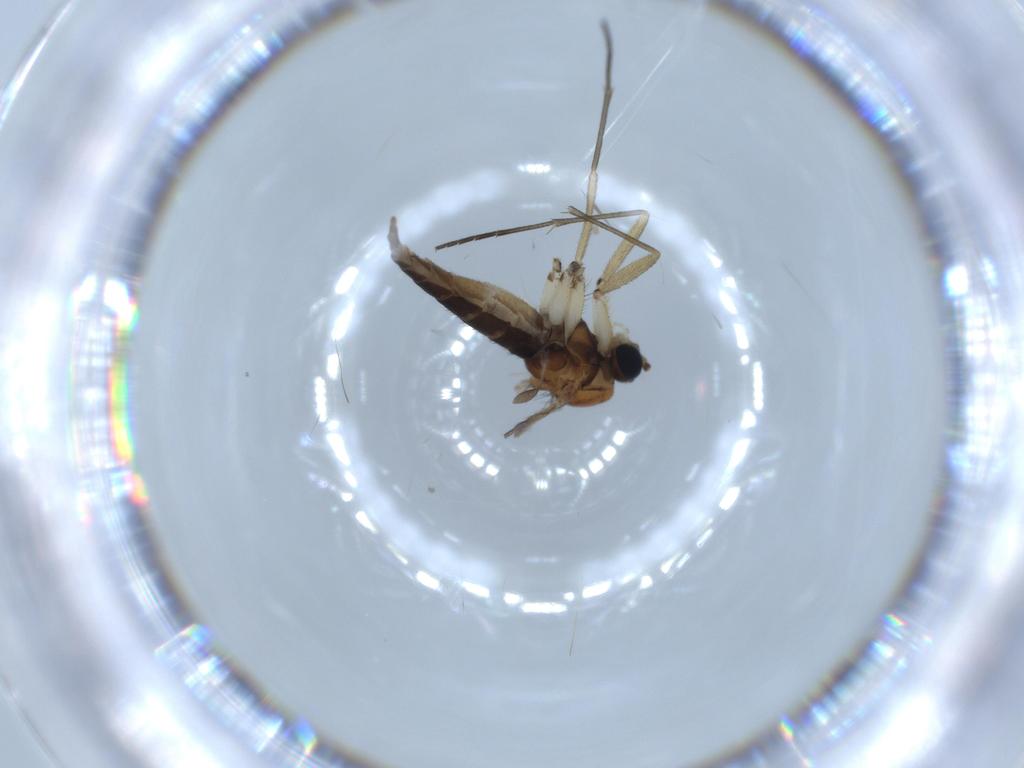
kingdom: Animalia
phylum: Arthropoda
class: Insecta
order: Diptera
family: Sciaridae
